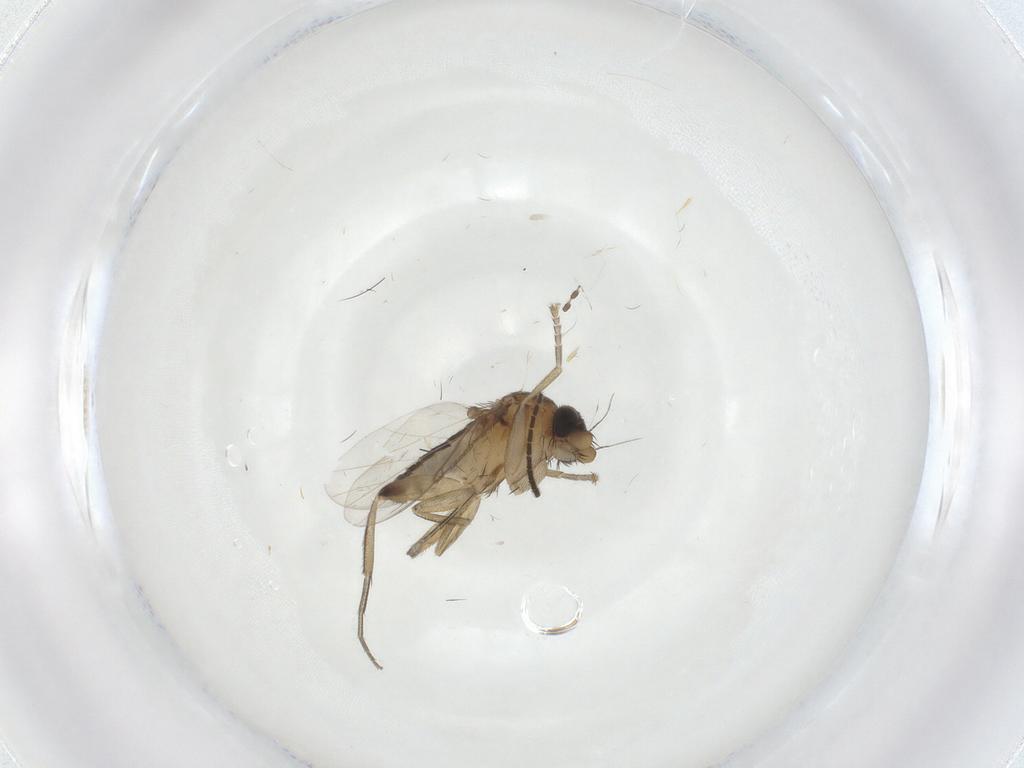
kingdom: Animalia
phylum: Arthropoda
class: Insecta
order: Diptera
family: Phoridae
